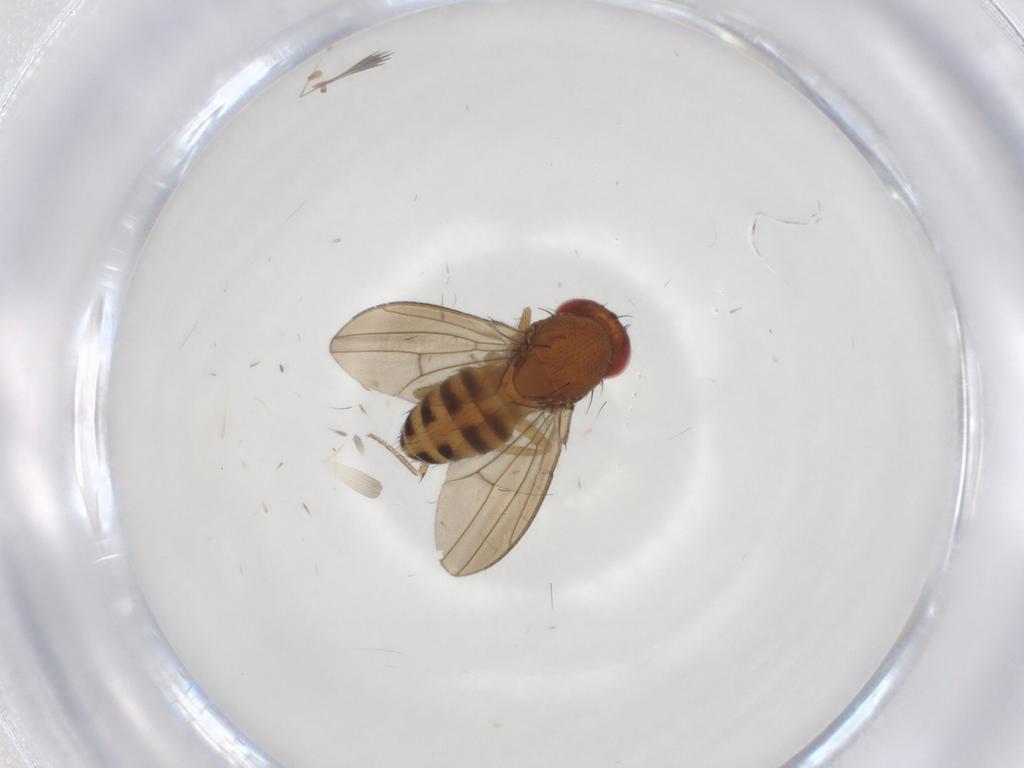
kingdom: Animalia
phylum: Arthropoda
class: Insecta
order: Diptera
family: Drosophilidae
